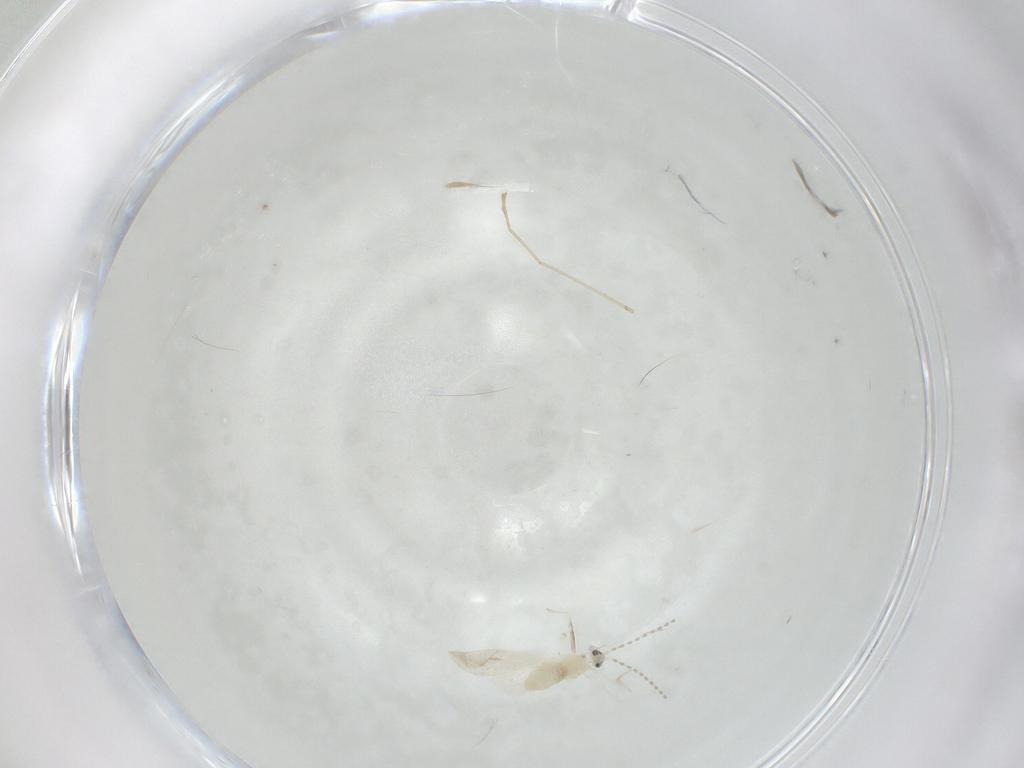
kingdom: Animalia
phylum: Arthropoda
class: Insecta
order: Diptera
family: Cecidomyiidae
